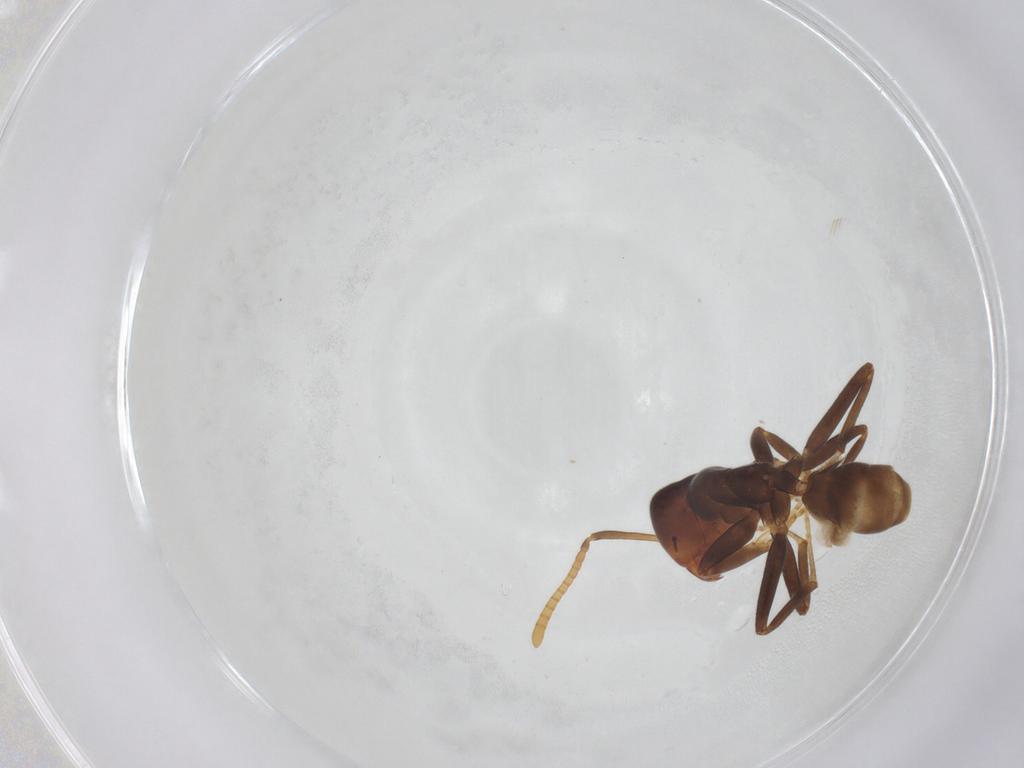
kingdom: Animalia
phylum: Arthropoda
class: Insecta
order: Hymenoptera
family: Formicidae
